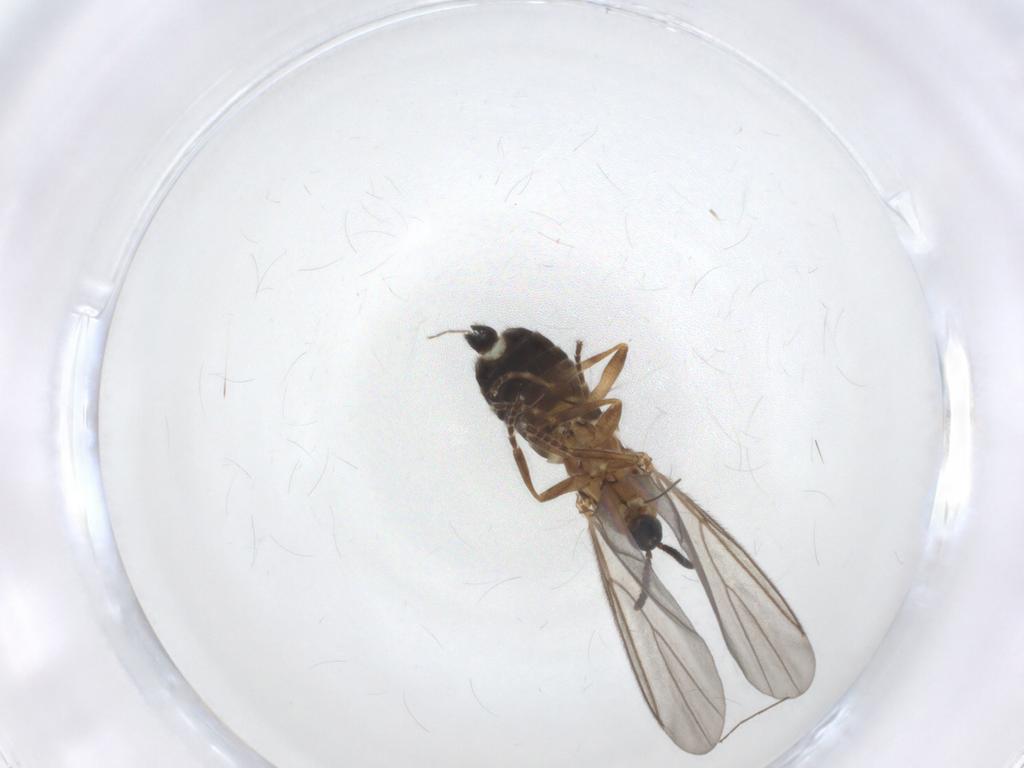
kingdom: Animalia
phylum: Arthropoda
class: Insecta
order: Diptera
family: Scatopsidae
